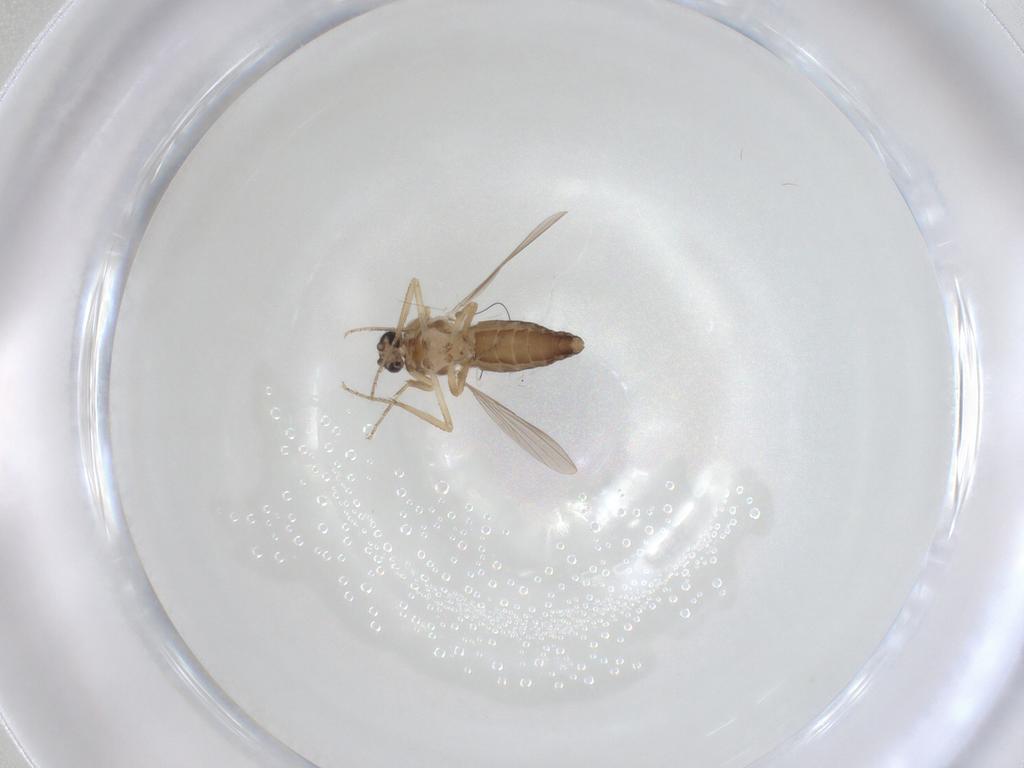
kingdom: Animalia
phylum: Arthropoda
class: Insecta
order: Diptera
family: Ceratopogonidae
